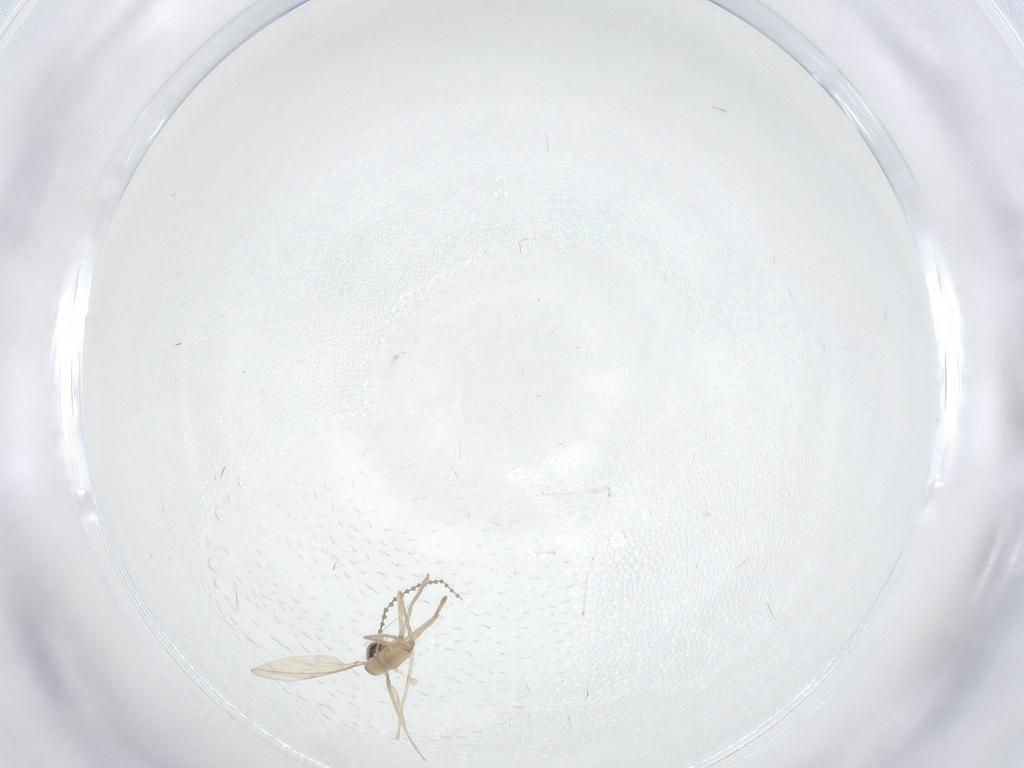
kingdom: Animalia
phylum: Arthropoda
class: Insecta
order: Diptera
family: Cecidomyiidae
